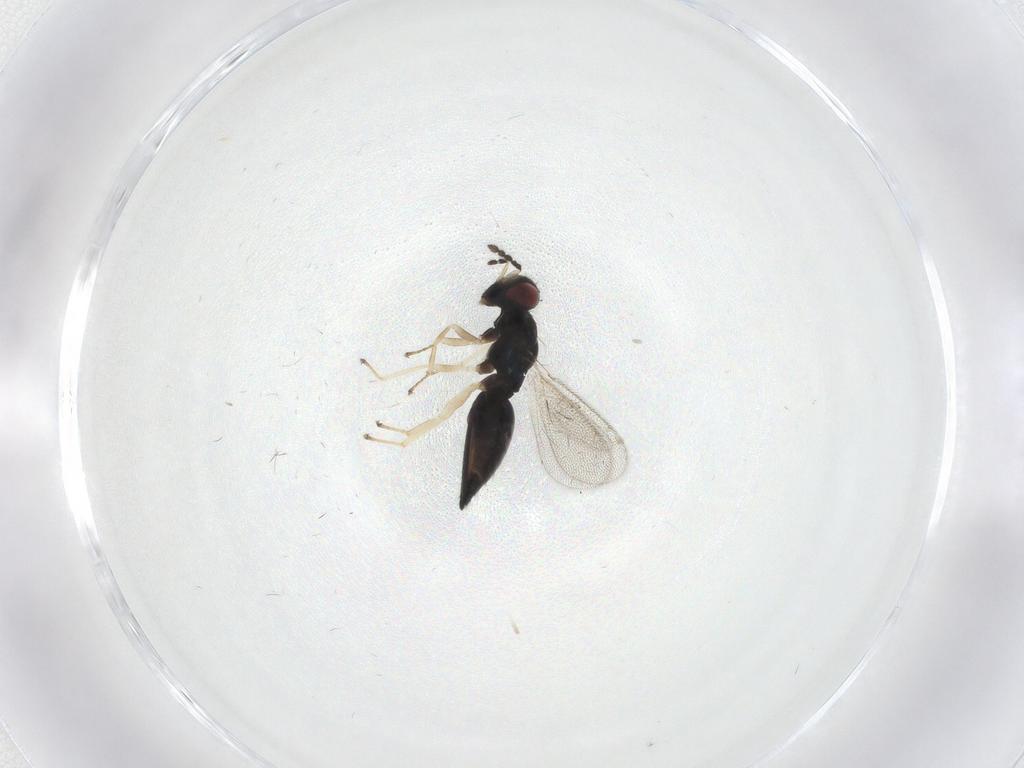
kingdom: Animalia
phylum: Arthropoda
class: Insecta
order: Hymenoptera
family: Eulophidae
